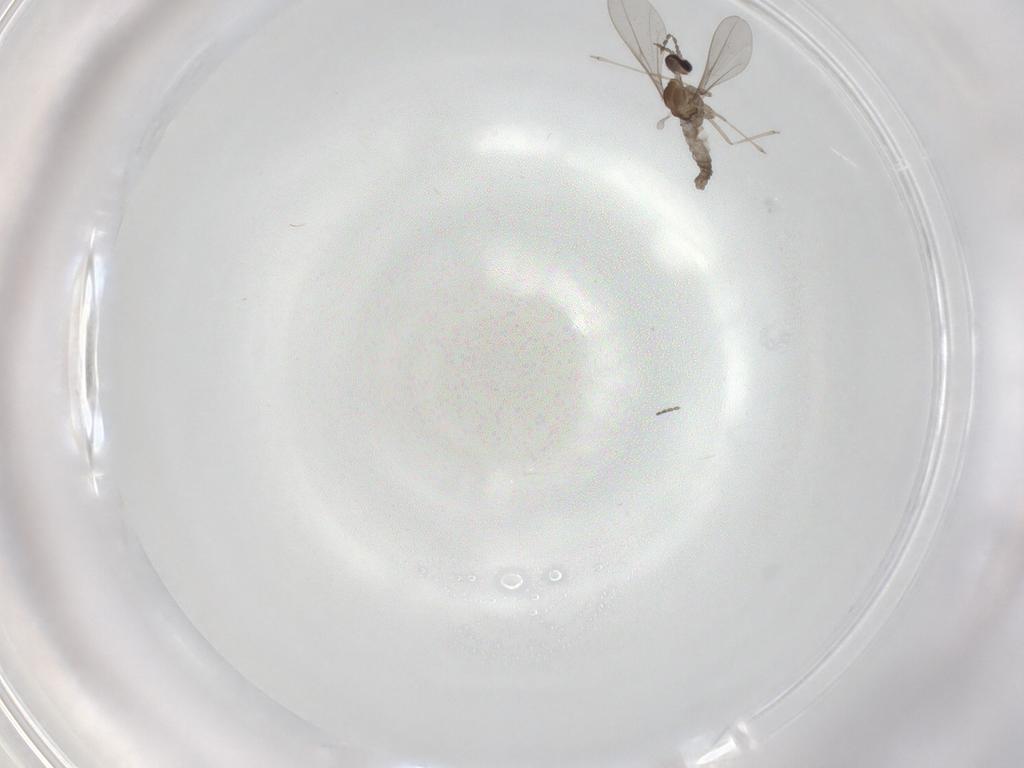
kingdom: Animalia
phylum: Arthropoda
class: Insecta
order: Diptera
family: Cecidomyiidae
